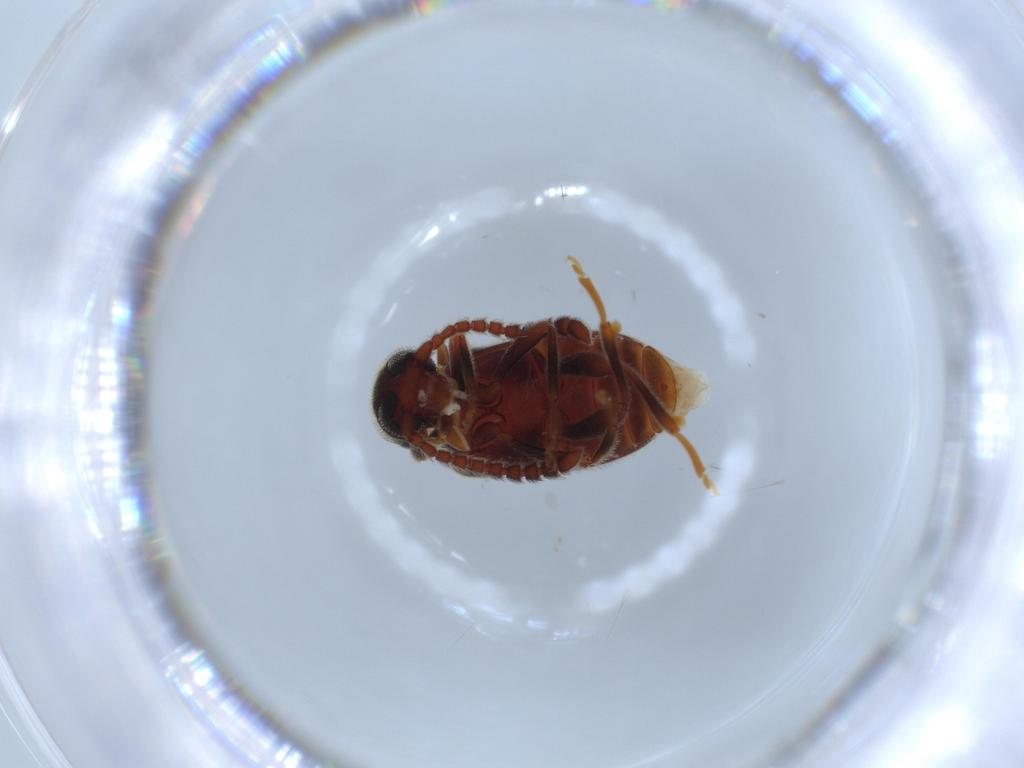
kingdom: Animalia
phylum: Arthropoda
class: Insecta
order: Coleoptera
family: Aderidae
